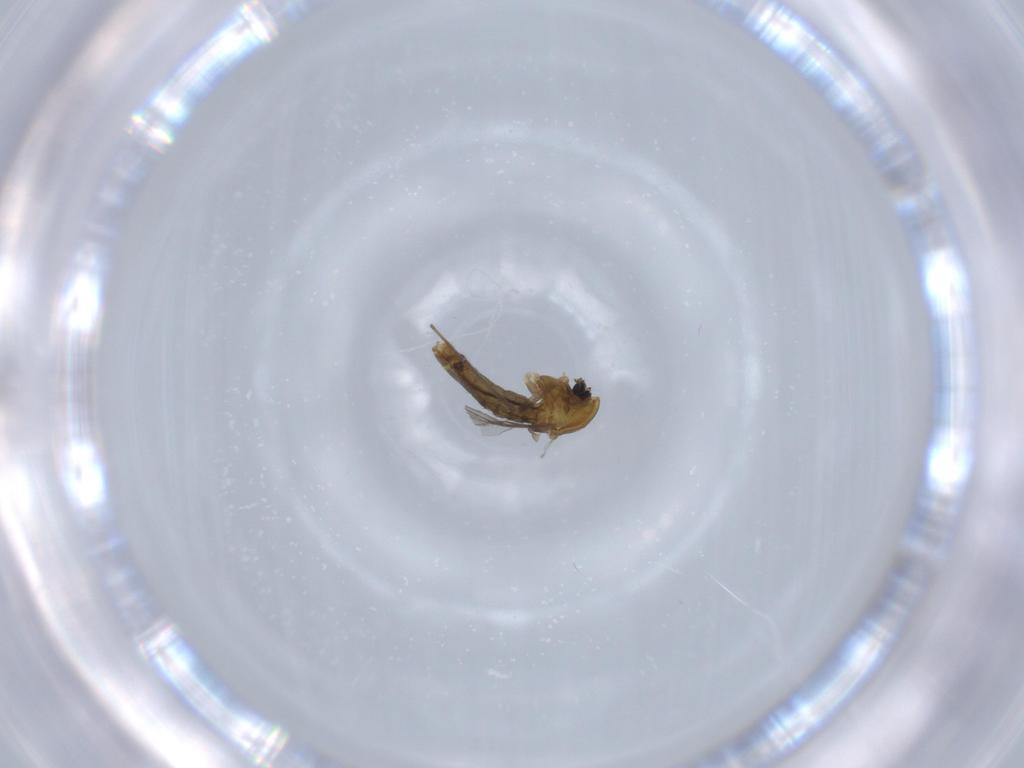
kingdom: Animalia
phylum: Arthropoda
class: Insecta
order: Diptera
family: Chironomidae
